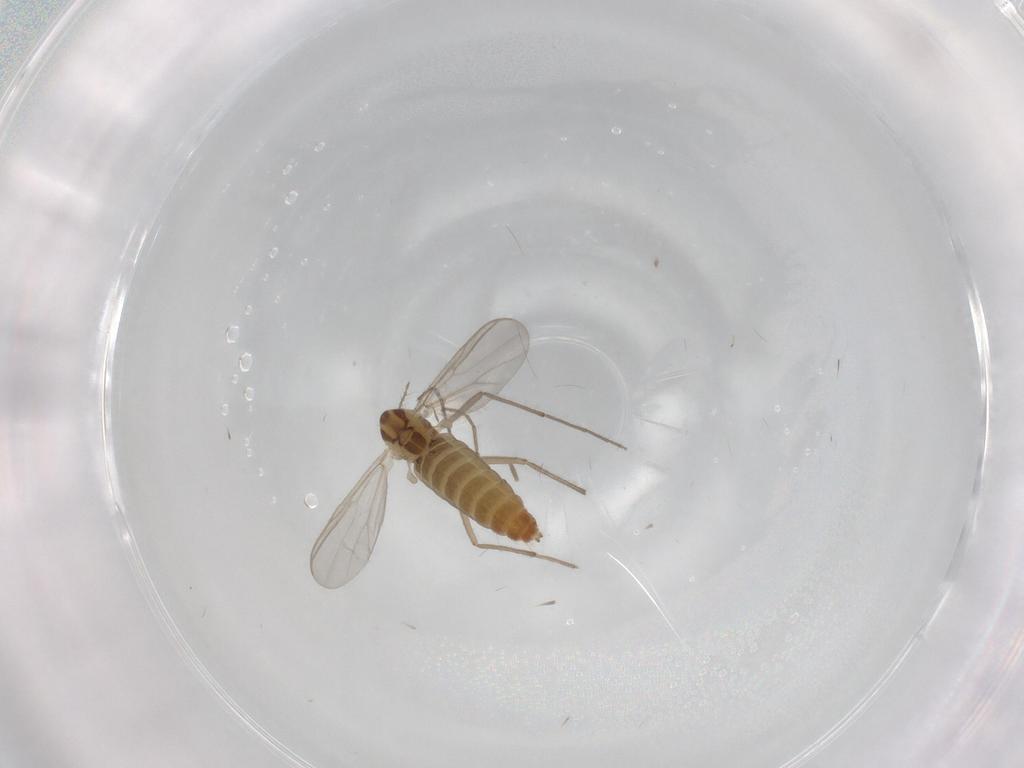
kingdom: Animalia
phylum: Arthropoda
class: Insecta
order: Diptera
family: Chironomidae
